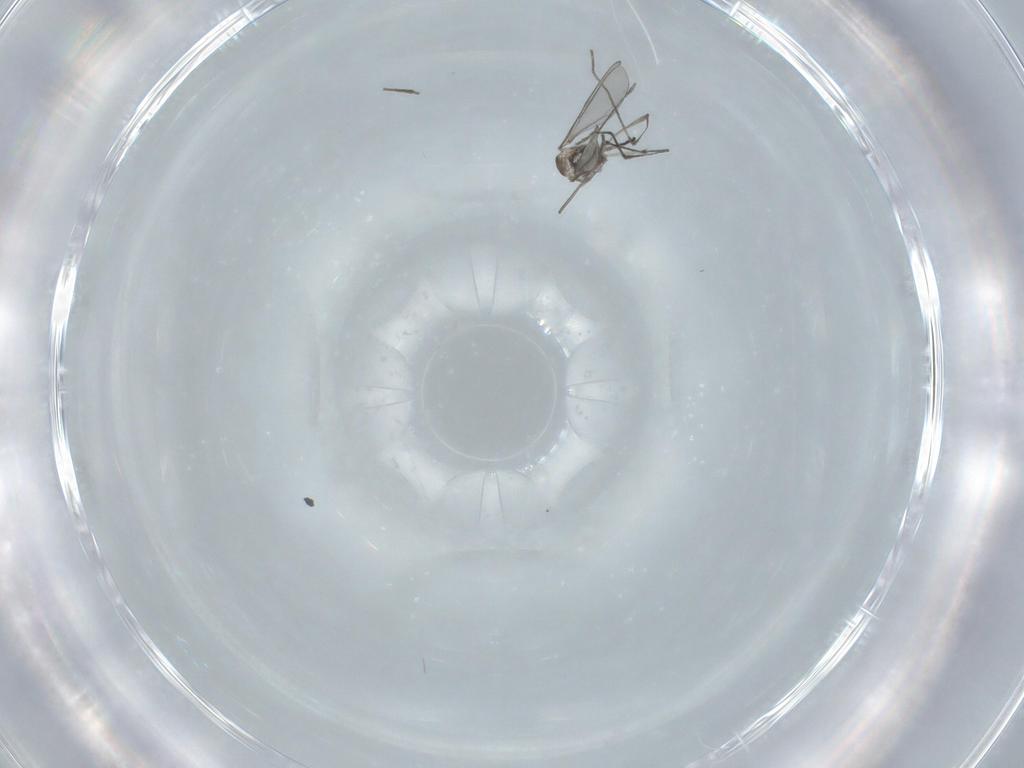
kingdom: Animalia
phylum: Arthropoda
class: Insecta
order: Diptera
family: Cecidomyiidae
